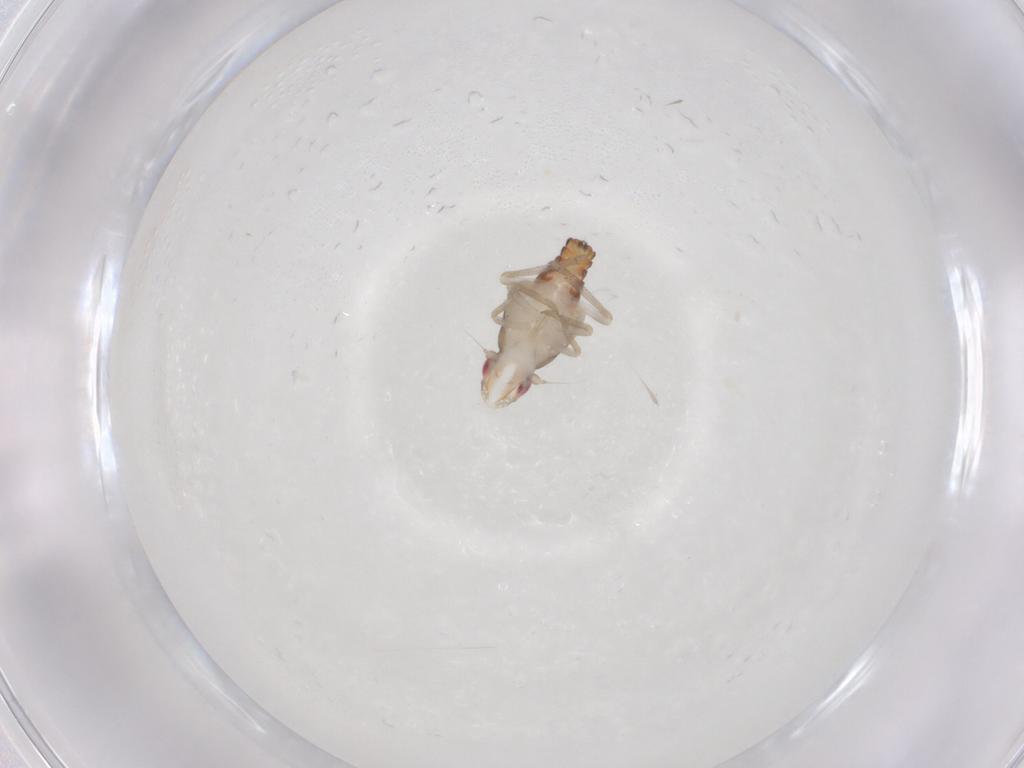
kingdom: Animalia
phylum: Arthropoda
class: Insecta
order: Hemiptera
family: Tropiduchidae
